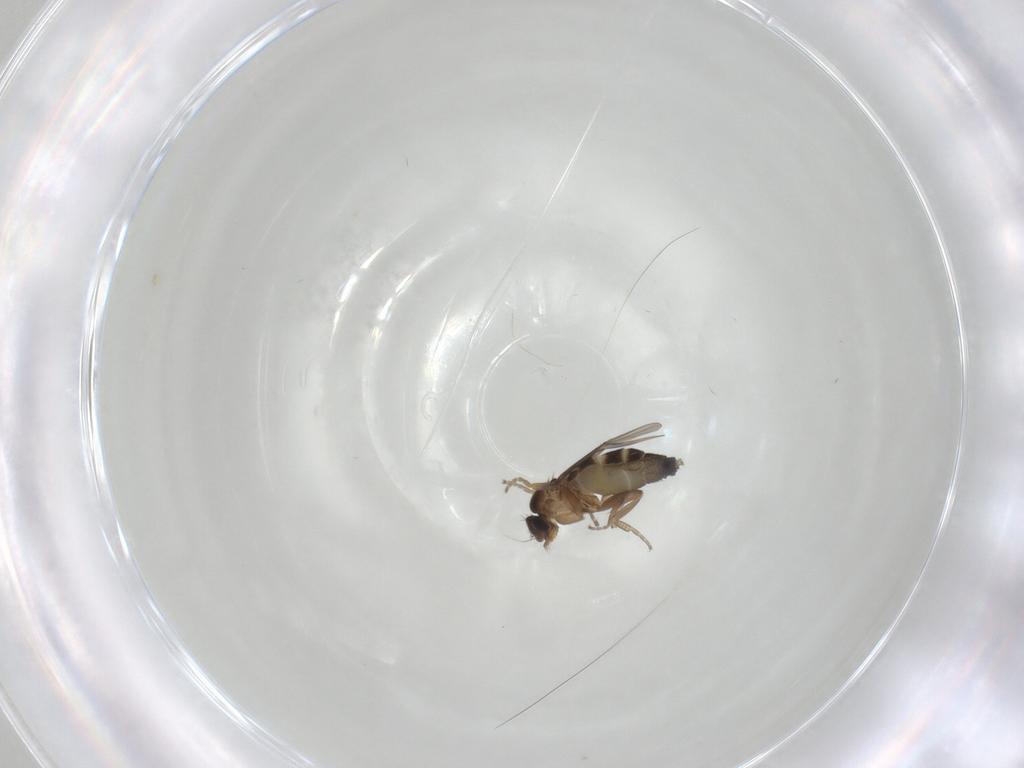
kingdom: Animalia
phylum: Arthropoda
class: Insecta
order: Diptera
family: Phoridae
